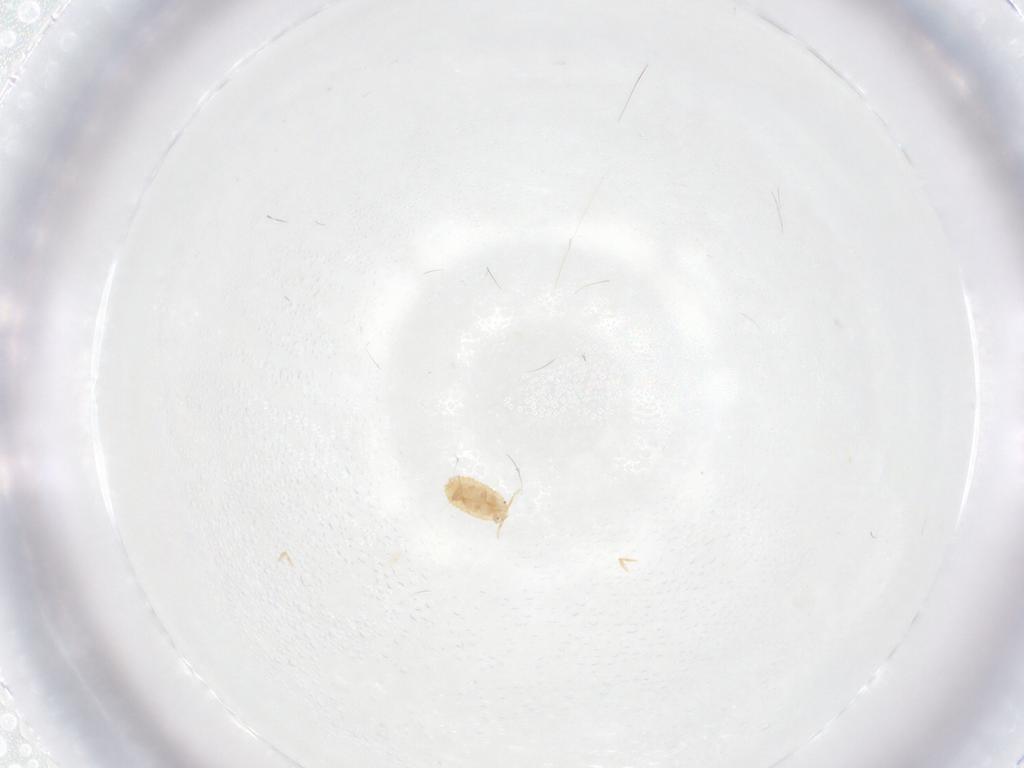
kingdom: Animalia
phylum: Arthropoda
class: Insecta
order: Hemiptera
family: Pseudococcidae
